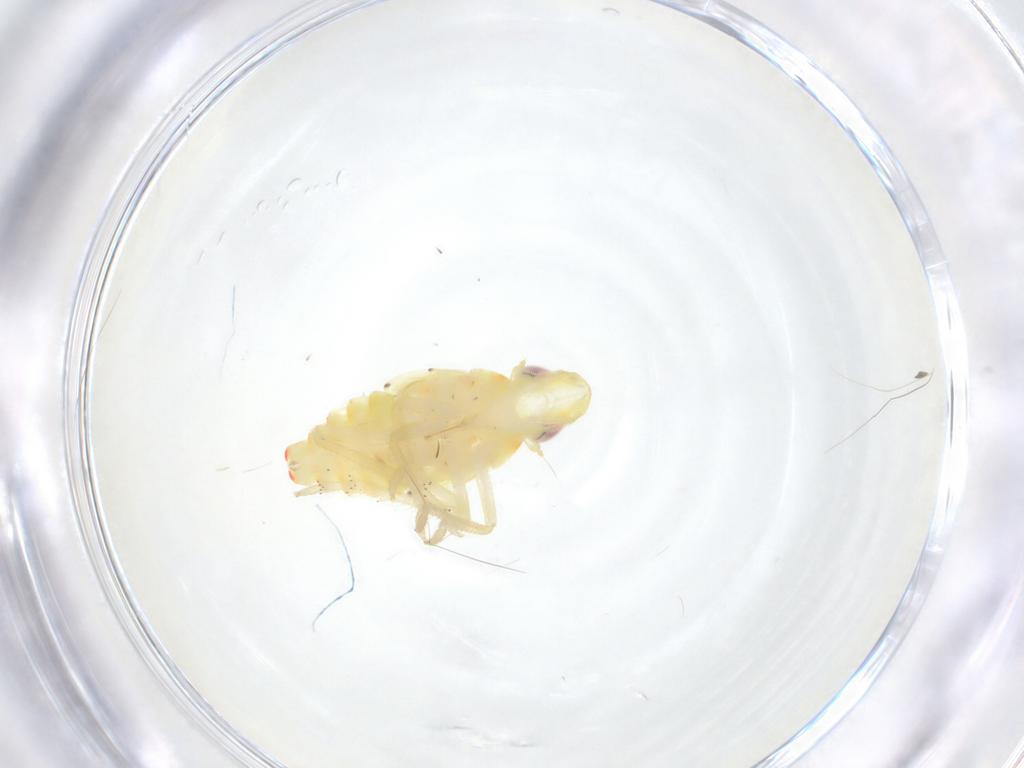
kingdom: Animalia
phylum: Arthropoda
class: Insecta
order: Hemiptera
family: Tropiduchidae
